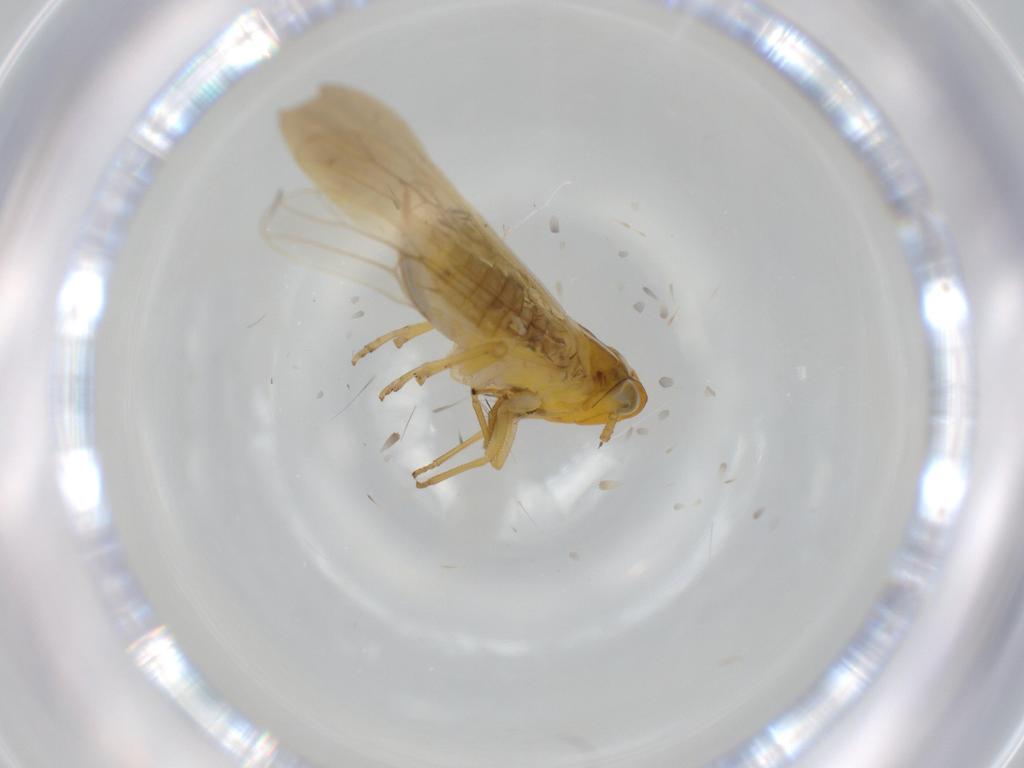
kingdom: Animalia
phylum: Arthropoda
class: Insecta
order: Hemiptera
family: Delphacidae
